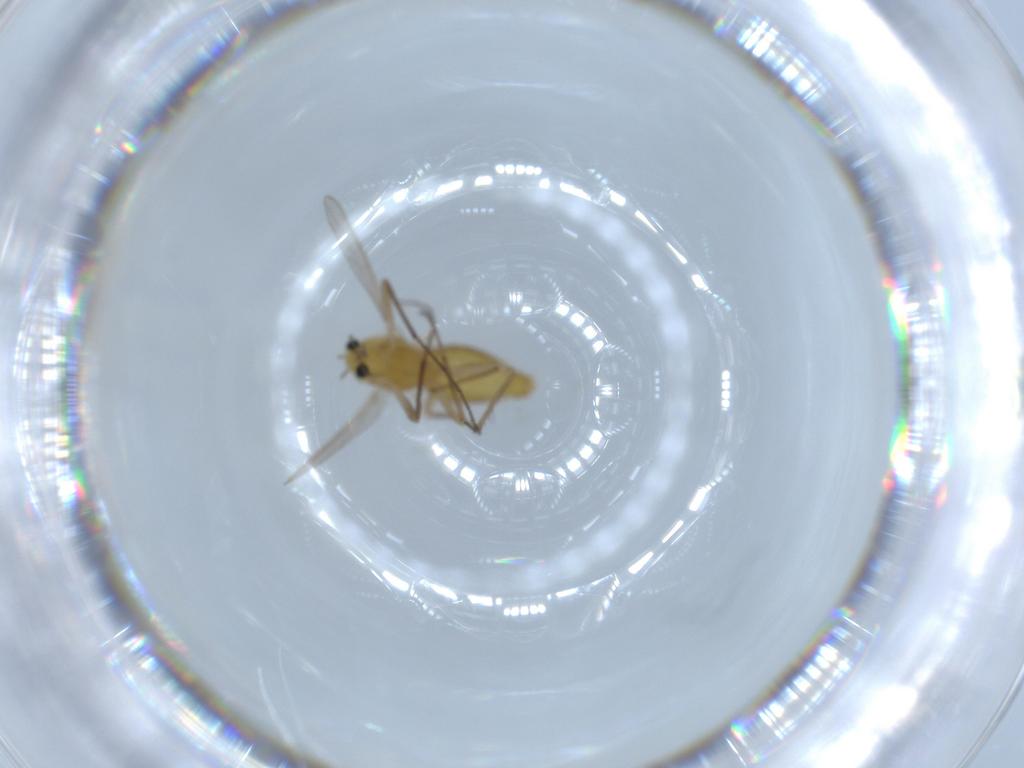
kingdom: Animalia
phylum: Arthropoda
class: Insecta
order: Diptera
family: Chironomidae
